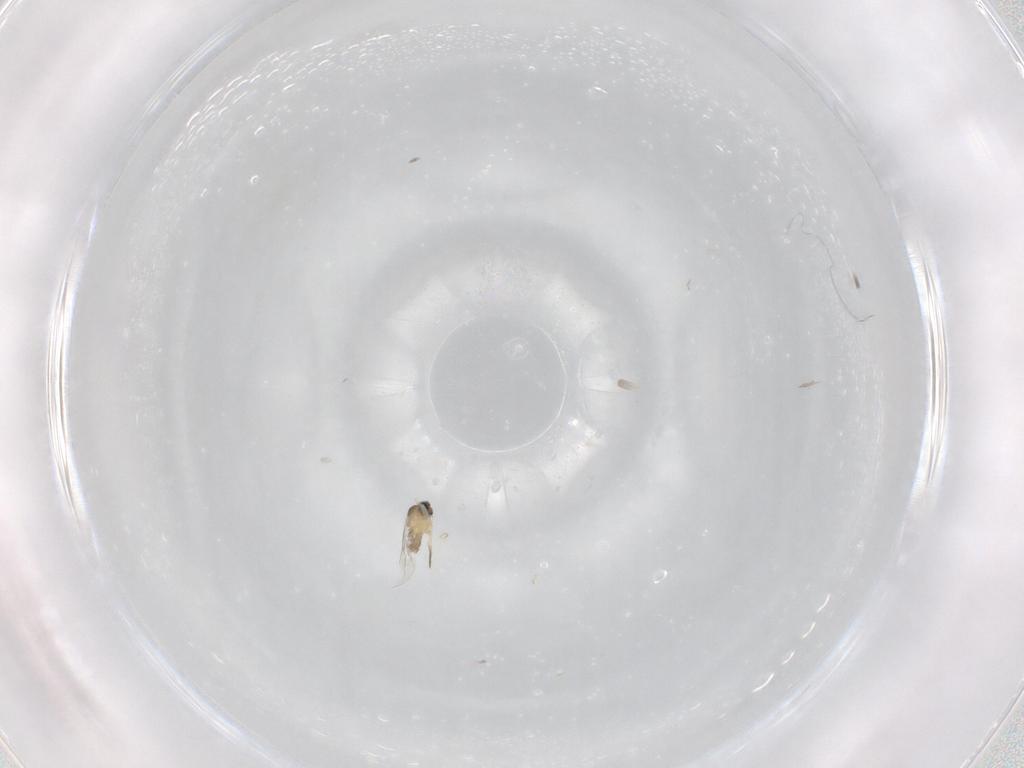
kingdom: Animalia
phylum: Arthropoda
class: Insecta
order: Diptera
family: Cecidomyiidae
